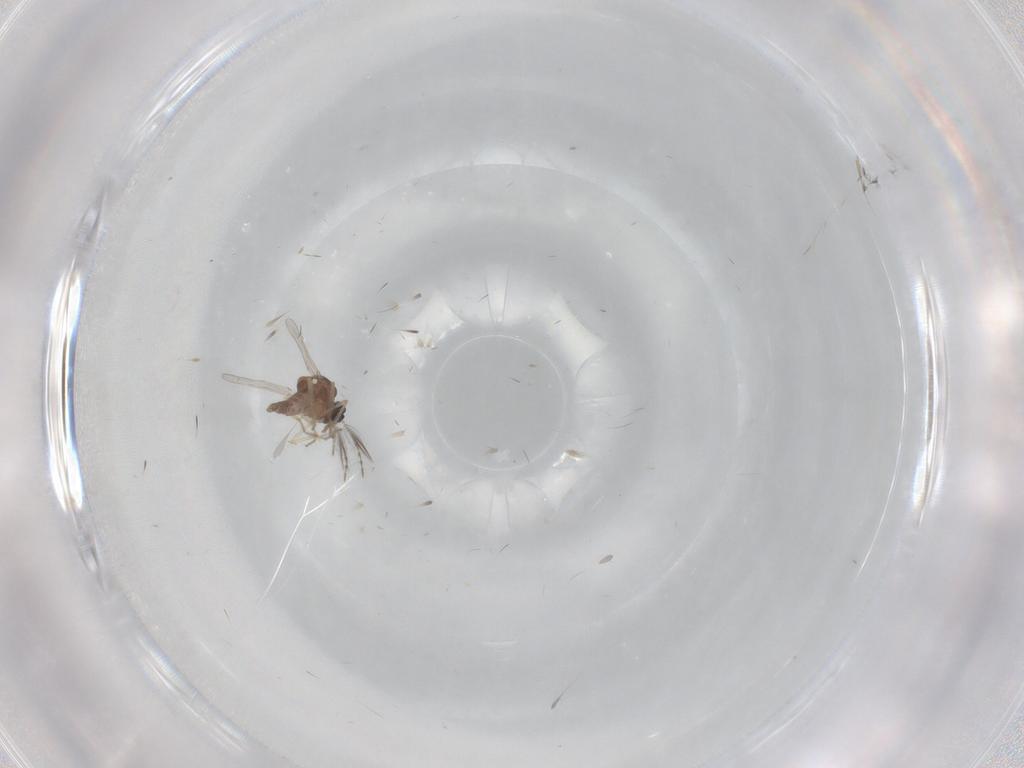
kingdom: Animalia
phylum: Arthropoda
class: Insecta
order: Diptera
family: Ceratopogonidae
